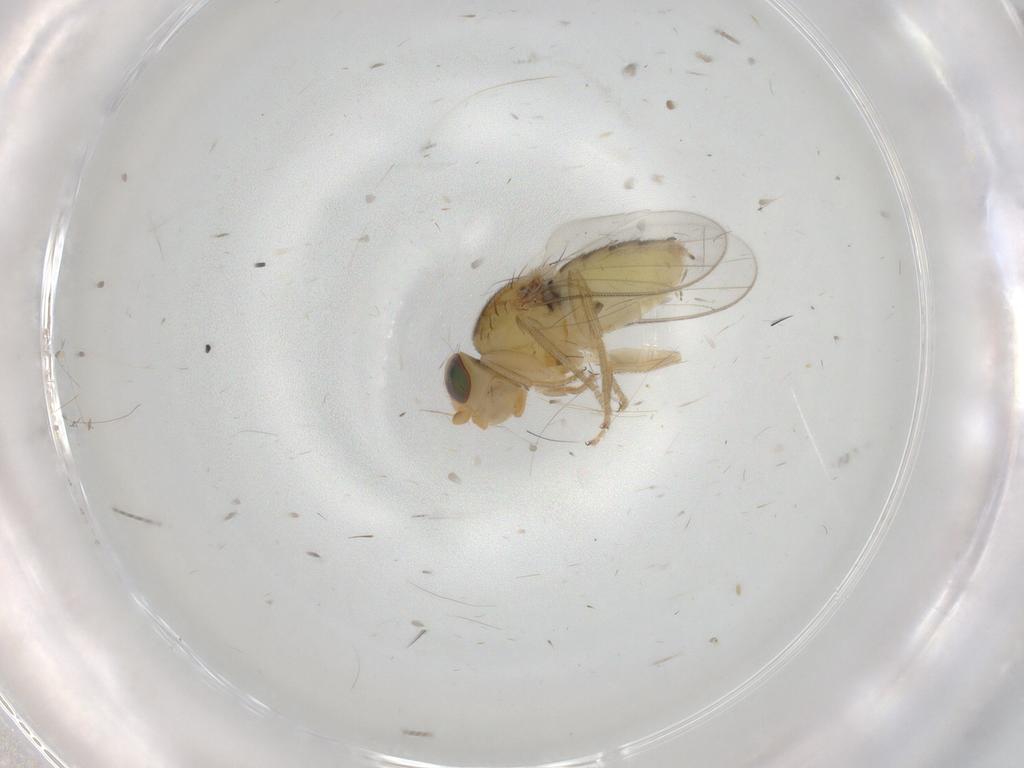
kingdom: Animalia
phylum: Arthropoda
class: Insecta
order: Diptera
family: Chloropidae
